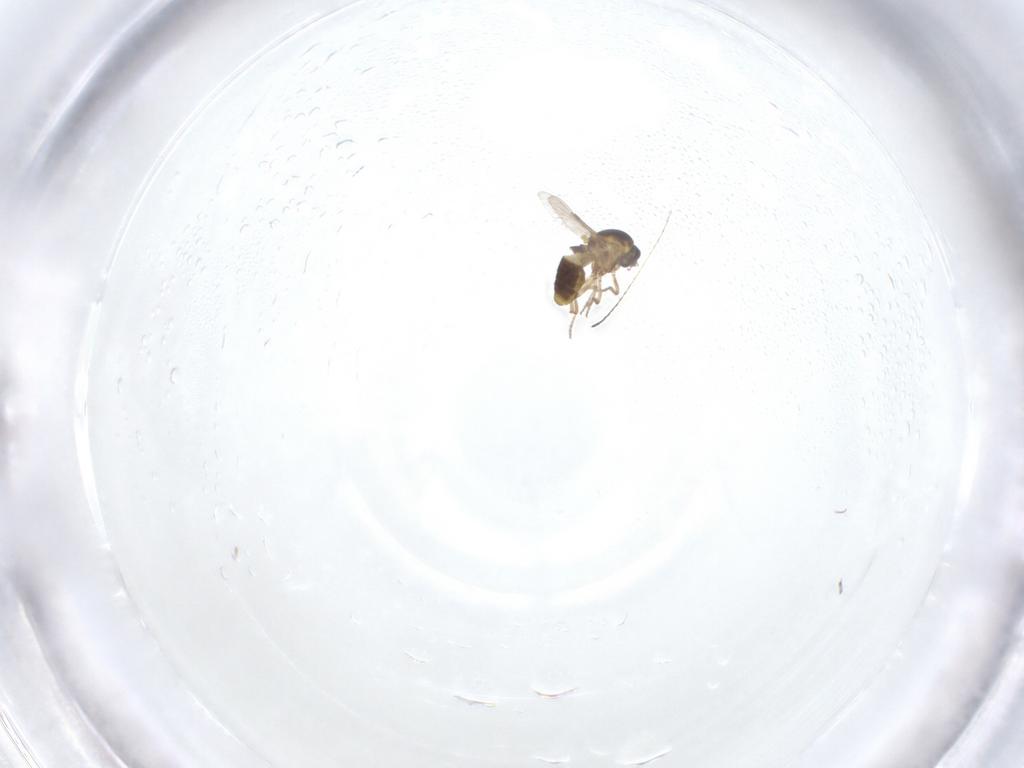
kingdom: Animalia
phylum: Arthropoda
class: Insecta
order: Diptera
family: Ceratopogonidae
